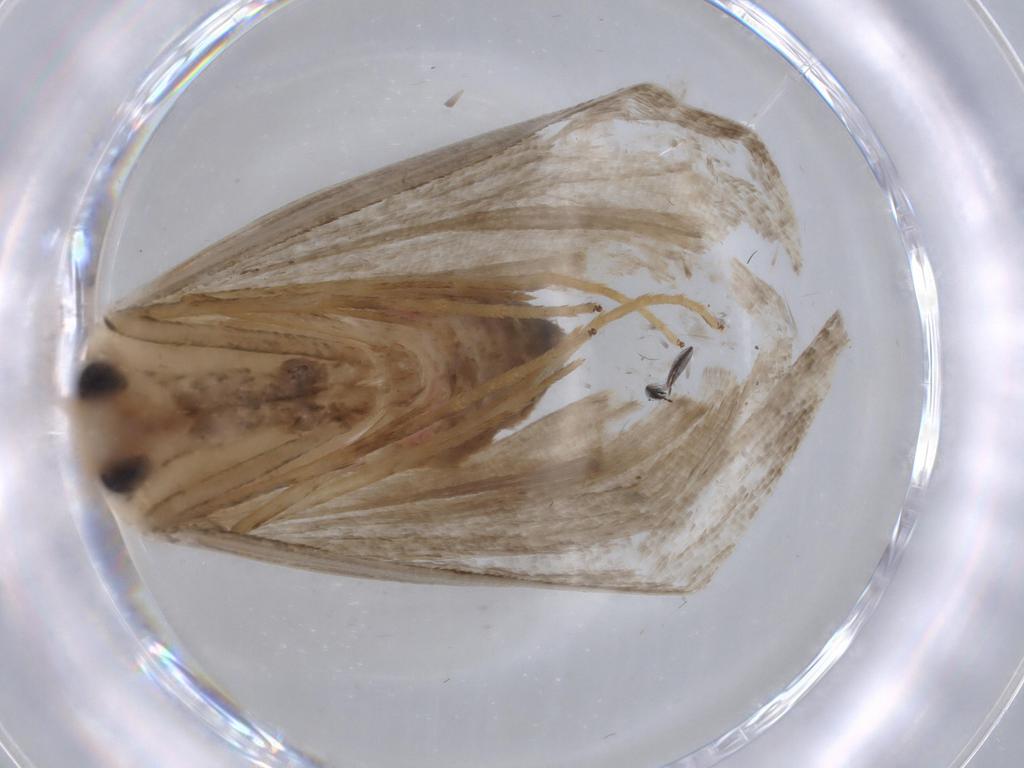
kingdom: Animalia
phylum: Arthropoda
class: Insecta
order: Lepidoptera
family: Erebidae
